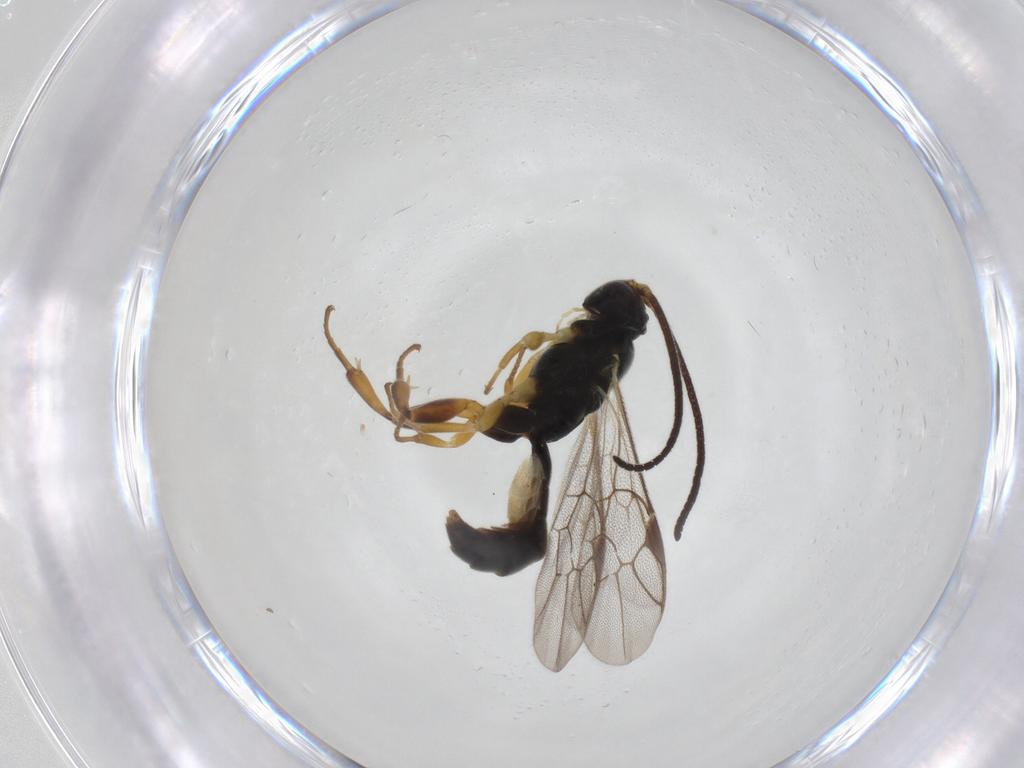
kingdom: Animalia
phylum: Arthropoda
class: Insecta
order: Hymenoptera
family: Ichneumonidae
